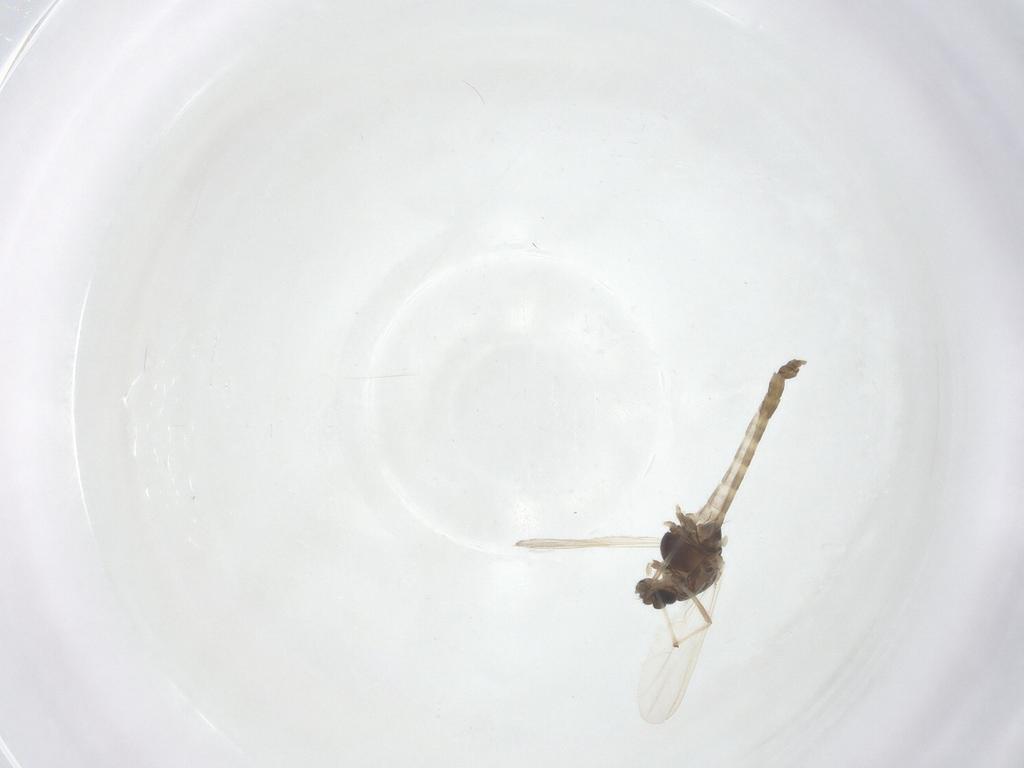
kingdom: Animalia
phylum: Arthropoda
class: Insecta
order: Diptera
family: Chironomidae
